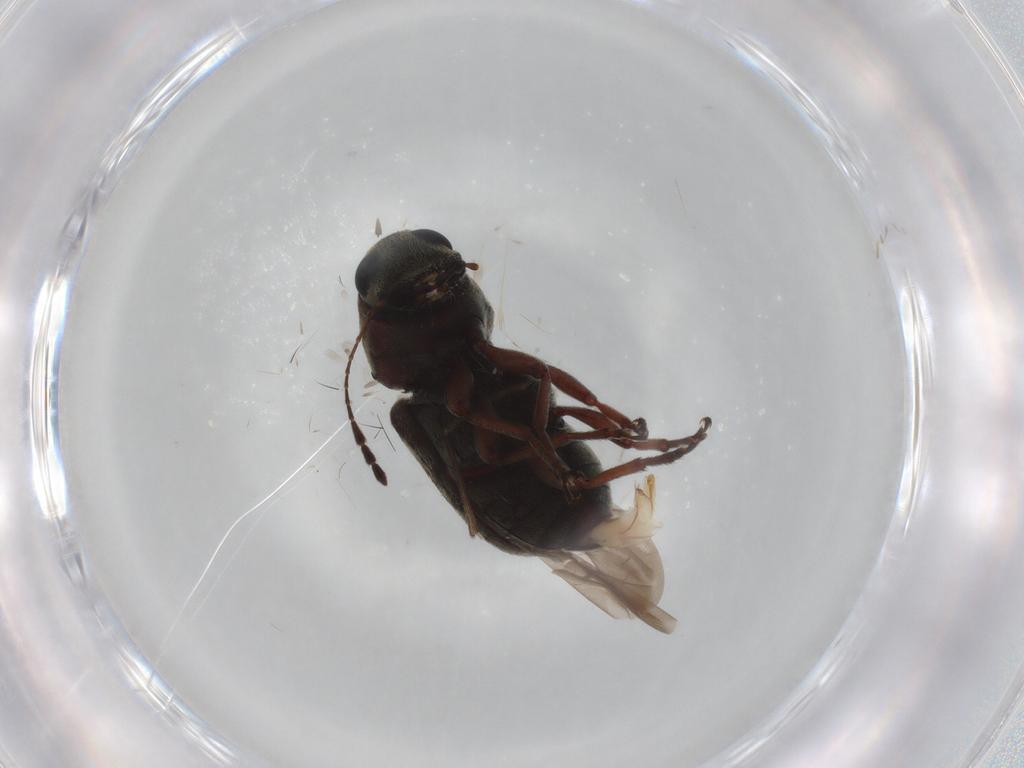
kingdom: Animalia
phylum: Arthropoda
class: Insecta
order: Coleoptera
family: Anthribidae
